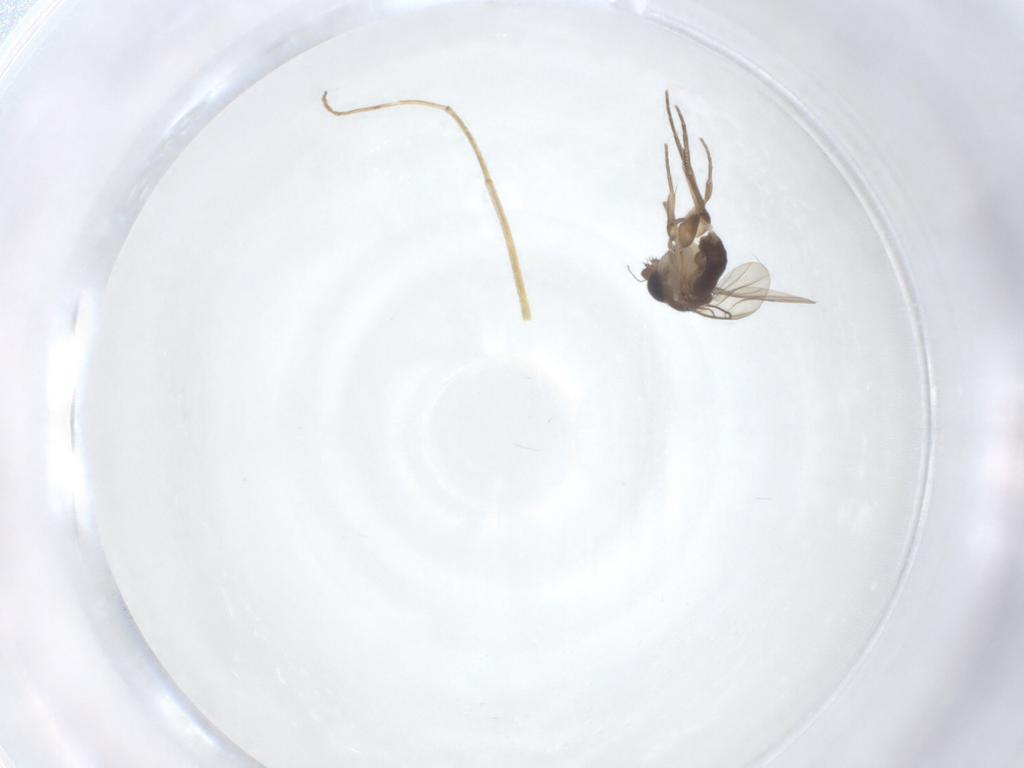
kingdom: Animalia
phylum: Arthropoda
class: Insecta
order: Diptera
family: Phoridae
